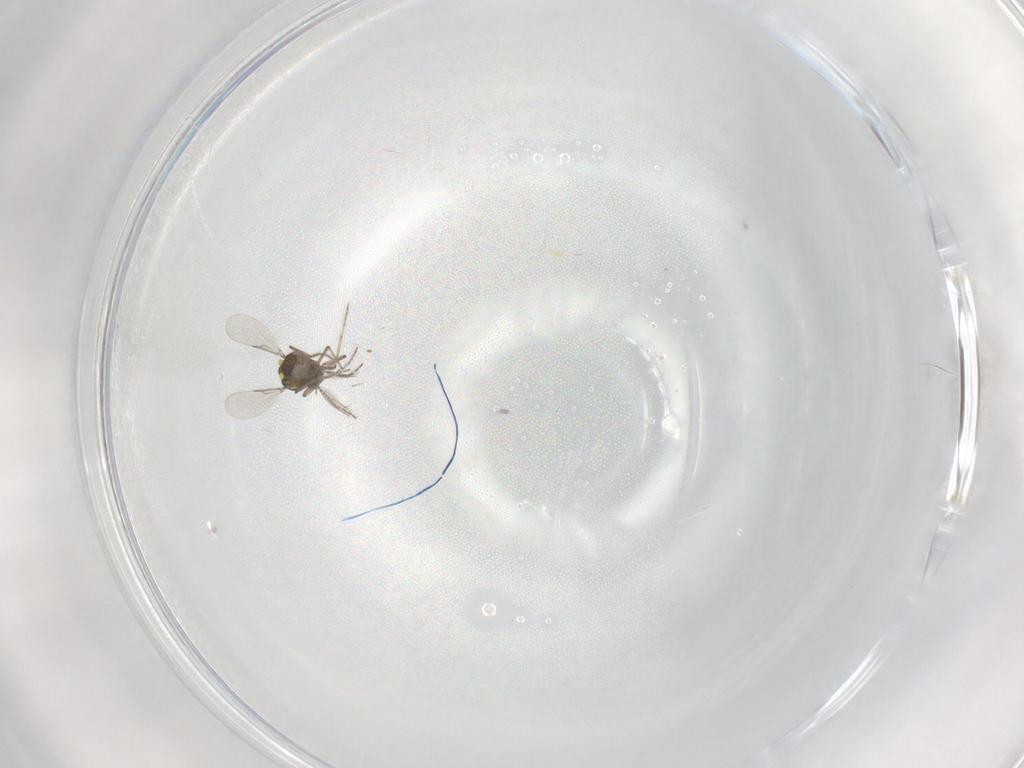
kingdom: Animalia
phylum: Arthropoda
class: Insecta
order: Diptera
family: Ceratopogonidae
